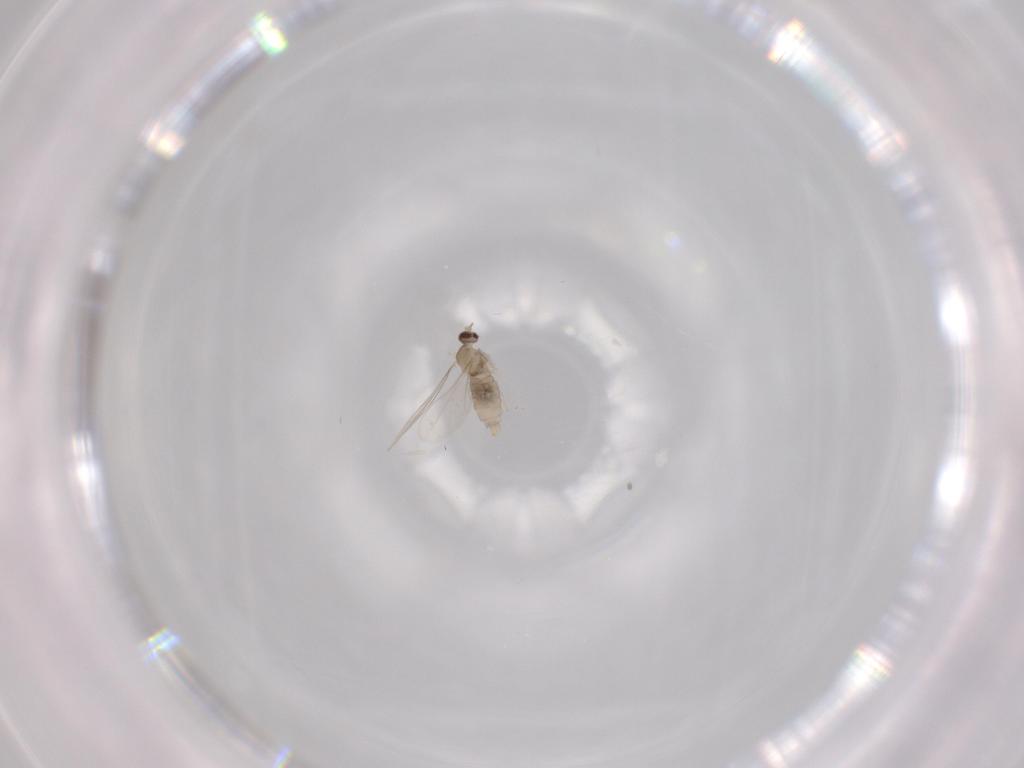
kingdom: Animalia
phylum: Arthropoda
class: Insecta
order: Diptera
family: Cecidomyiidae
